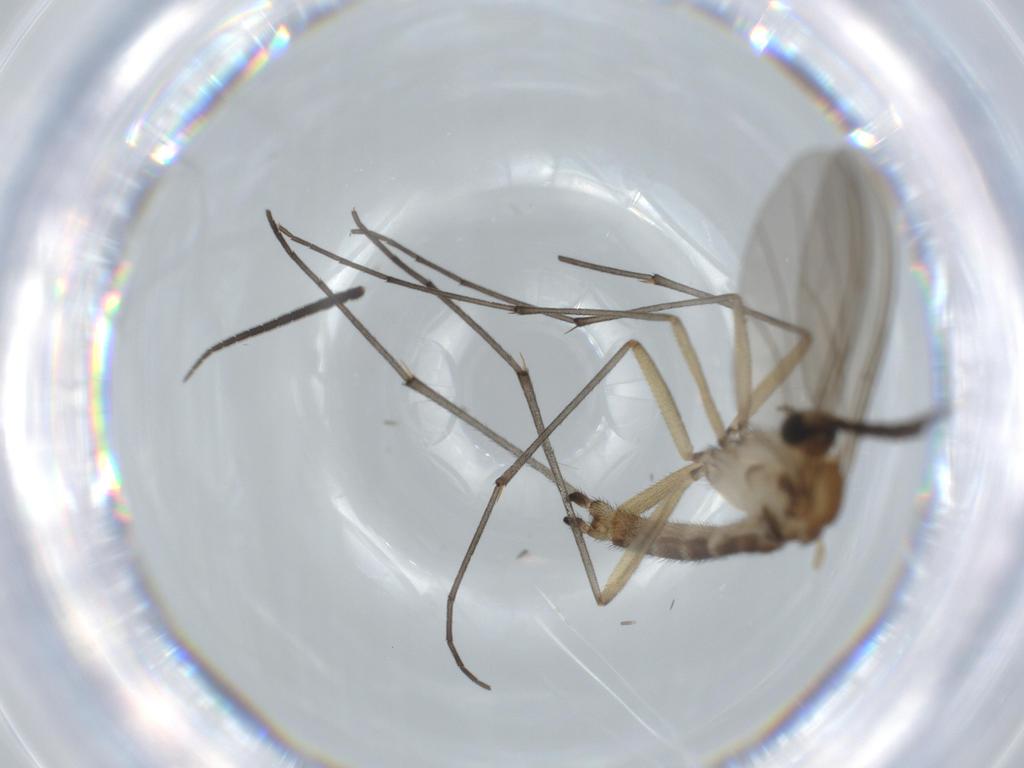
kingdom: Animalia
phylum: Arthropoda
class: Insecta
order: Diptera
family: Sciaridae
